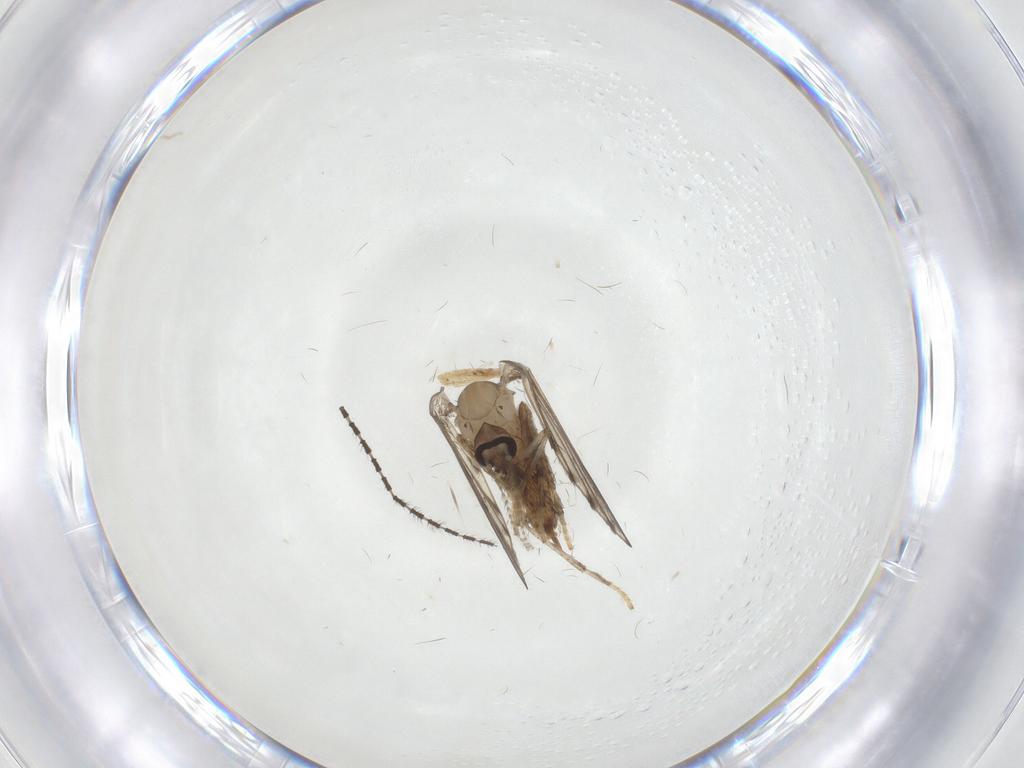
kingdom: Animalia
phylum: Arthropoda
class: Insecta
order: Diptera
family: Psychodidae
